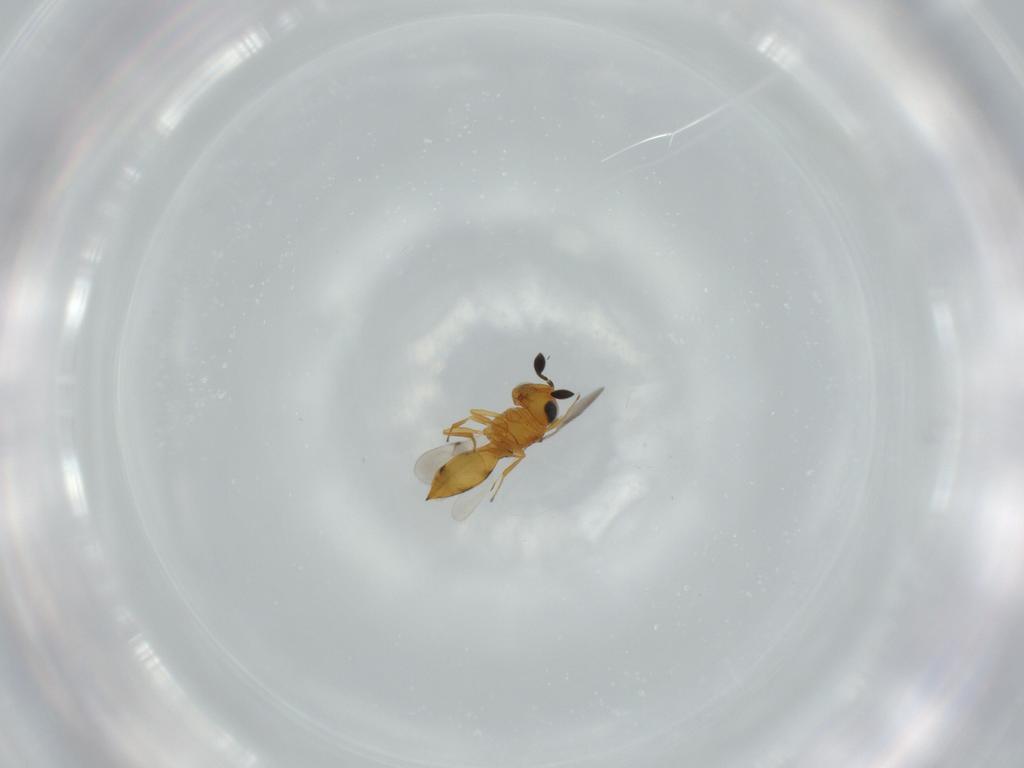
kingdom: Animalia
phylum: Arthropoda
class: Insecta
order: Hymenoptera
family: Scelionidae
